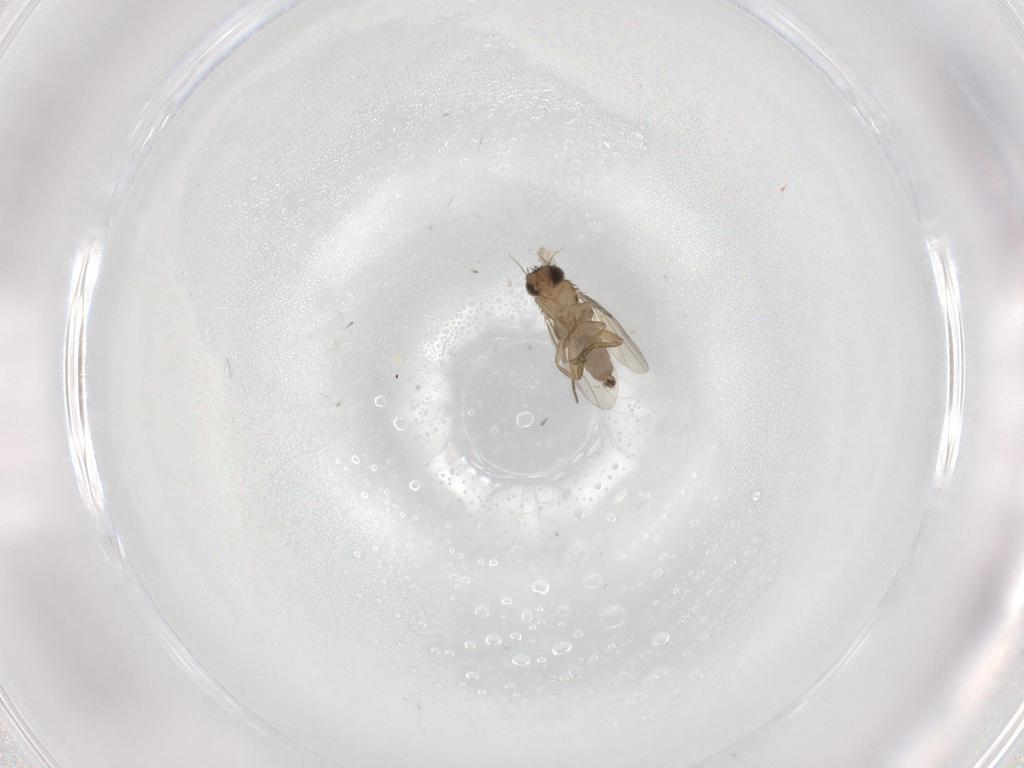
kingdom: Animalia
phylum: Arthropoda
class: Insecta
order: Diptera
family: Phoridae
